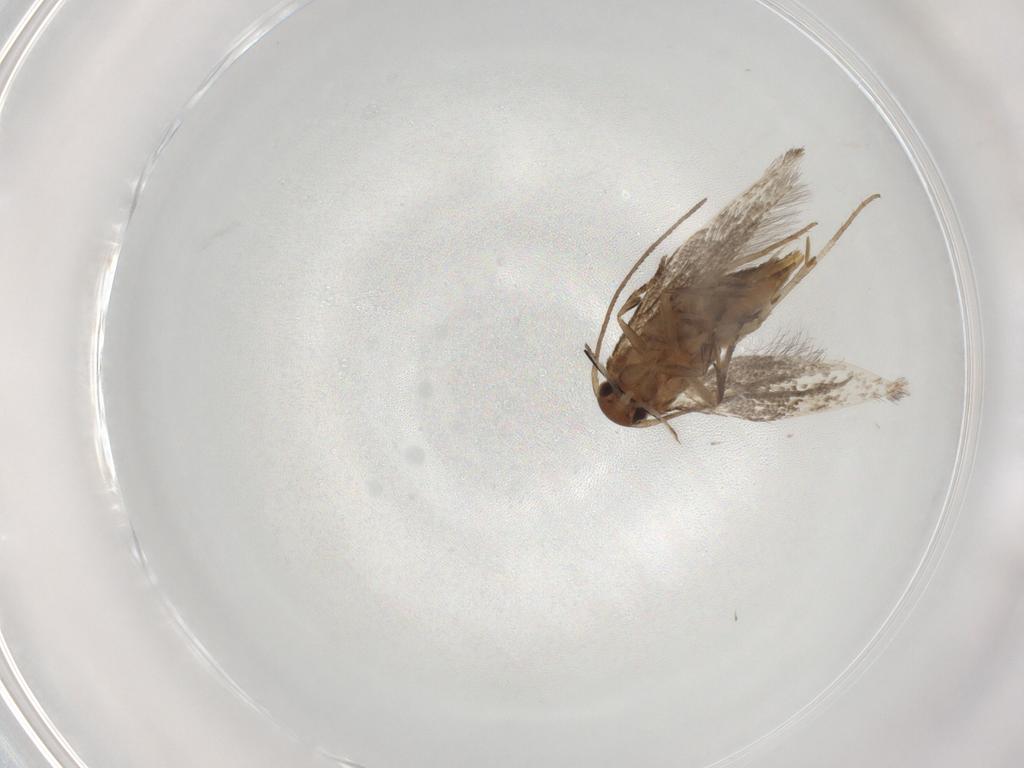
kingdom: Animalia
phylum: Arthropoda
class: Insecta
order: Lepidoptera
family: Elachistidae
